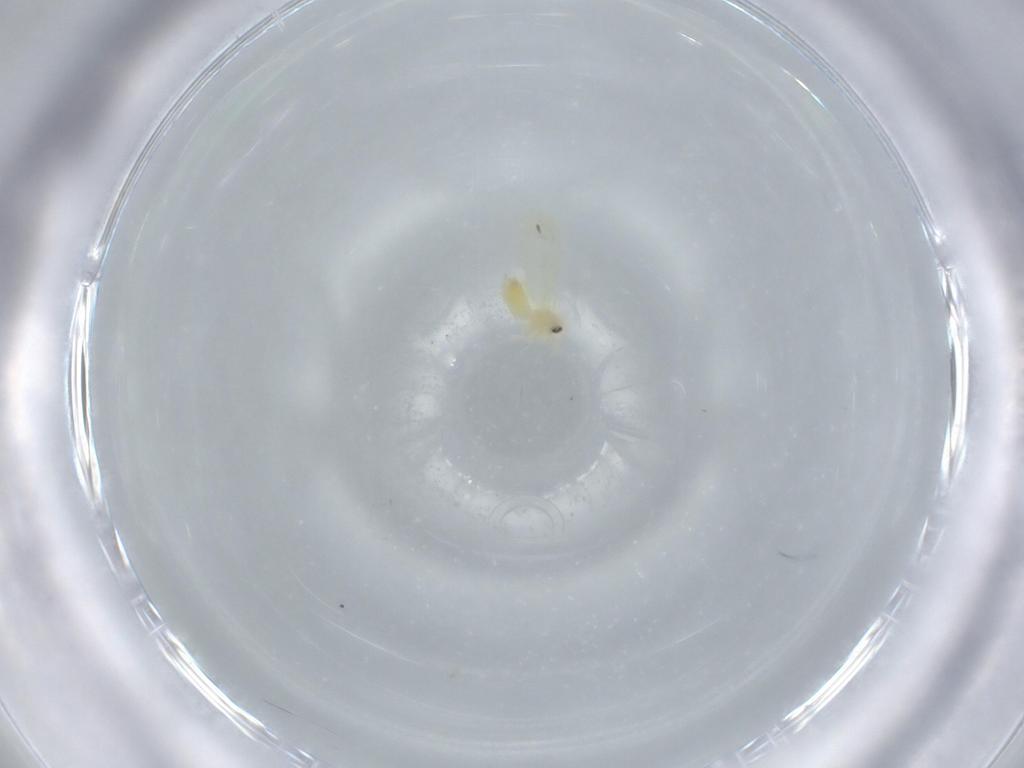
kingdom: Animalia
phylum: Arthropoda
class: Insecta
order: Hemiptera
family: Aleyrodidae
